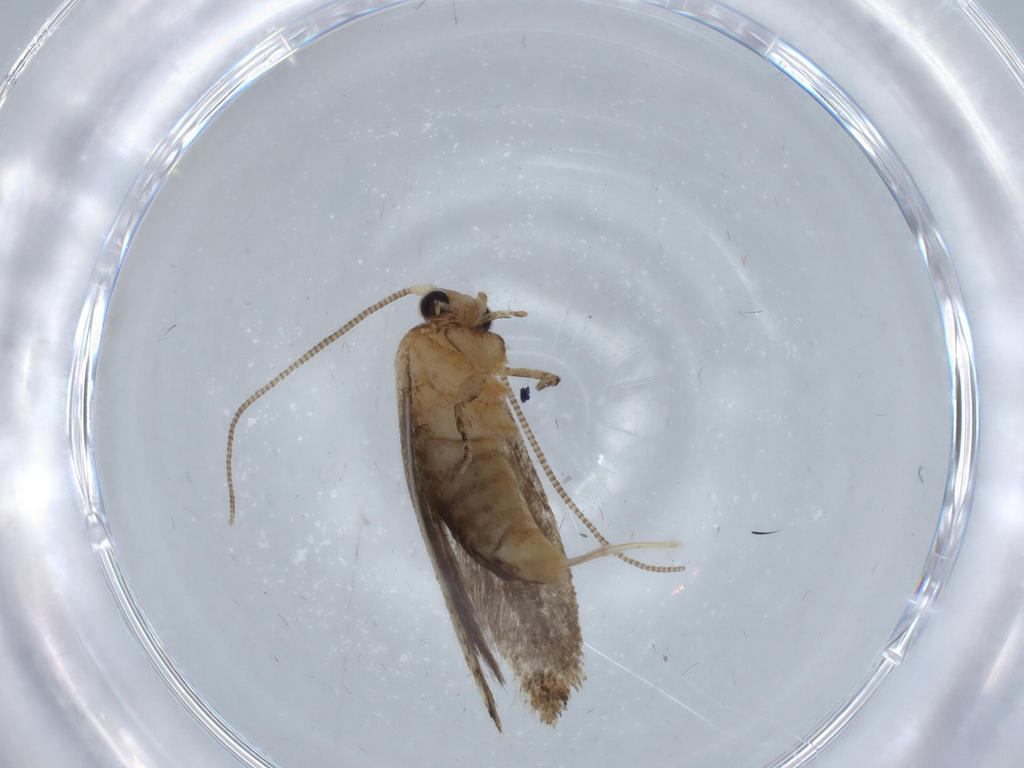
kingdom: Animalia
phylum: Arthropoda
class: Insecta
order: Lepidoptera
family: Tineidae
